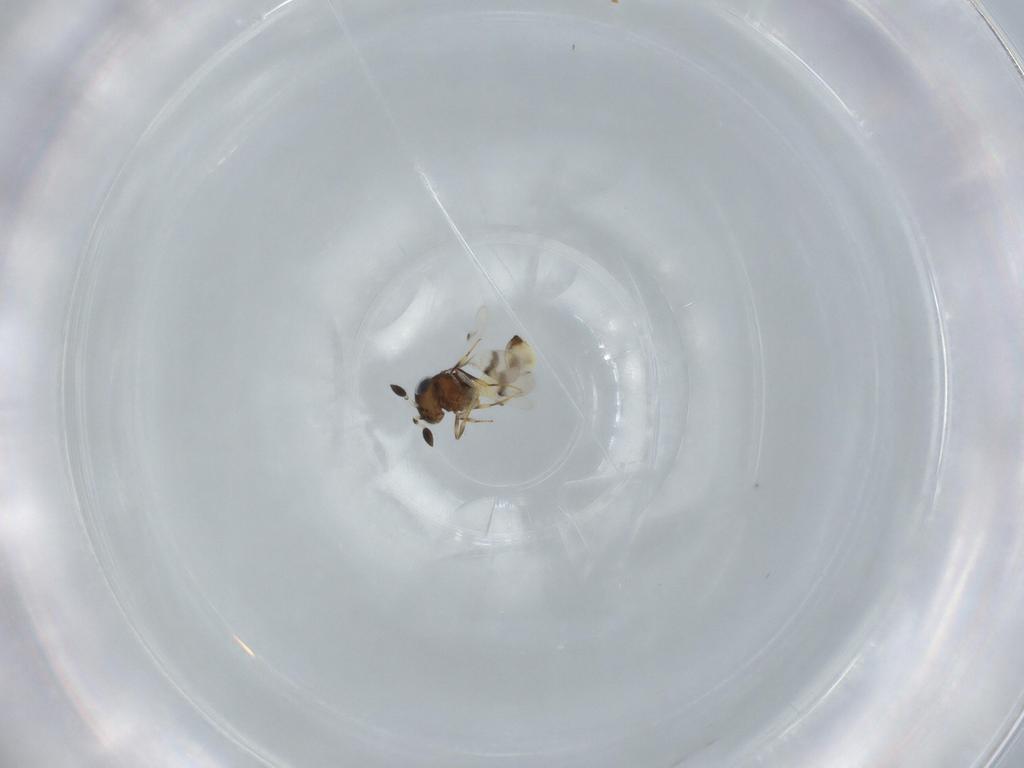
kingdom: Animalia
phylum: Arthropoda
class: Arachnida
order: Araneae
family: Pholcidae
